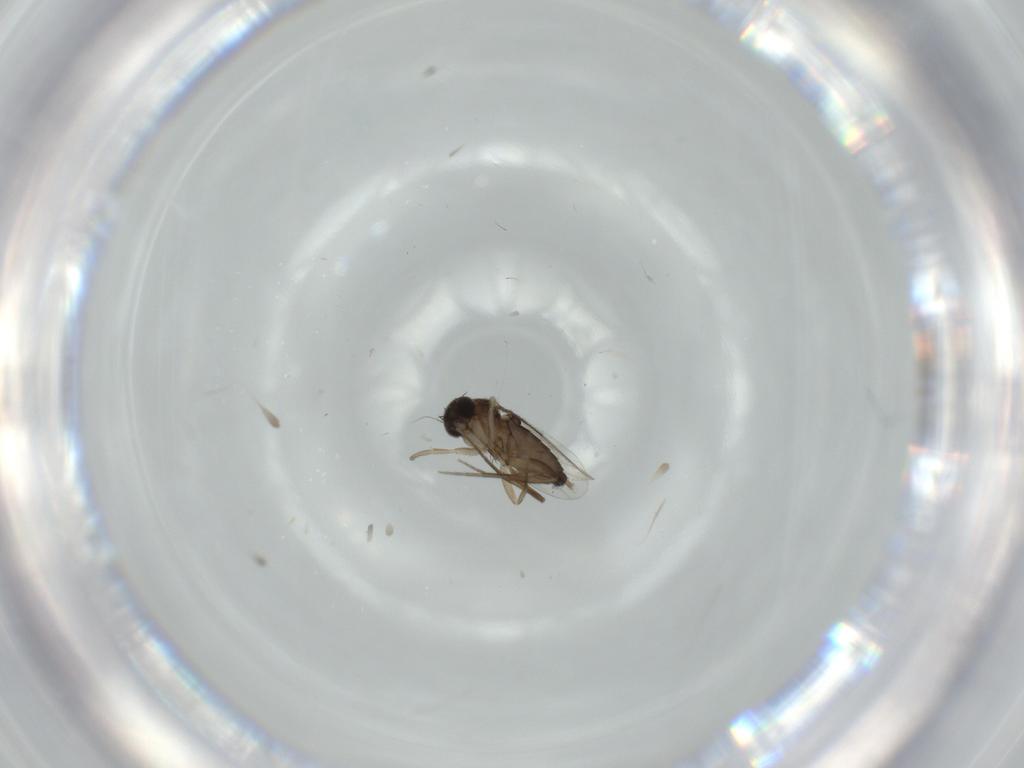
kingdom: Animalia
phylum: Arthropoda
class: Insecta
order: Diptera
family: Phoridae
